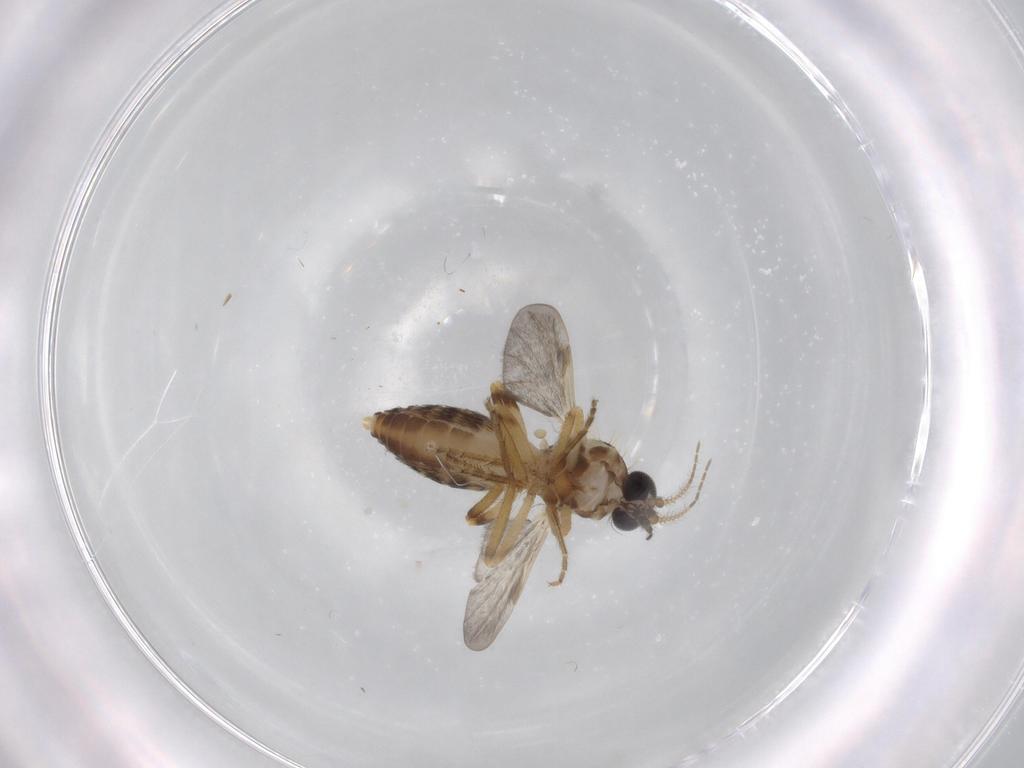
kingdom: Animalia
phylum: Arthropoda
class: Insecta
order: Diptera
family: Ceratopogonidae
